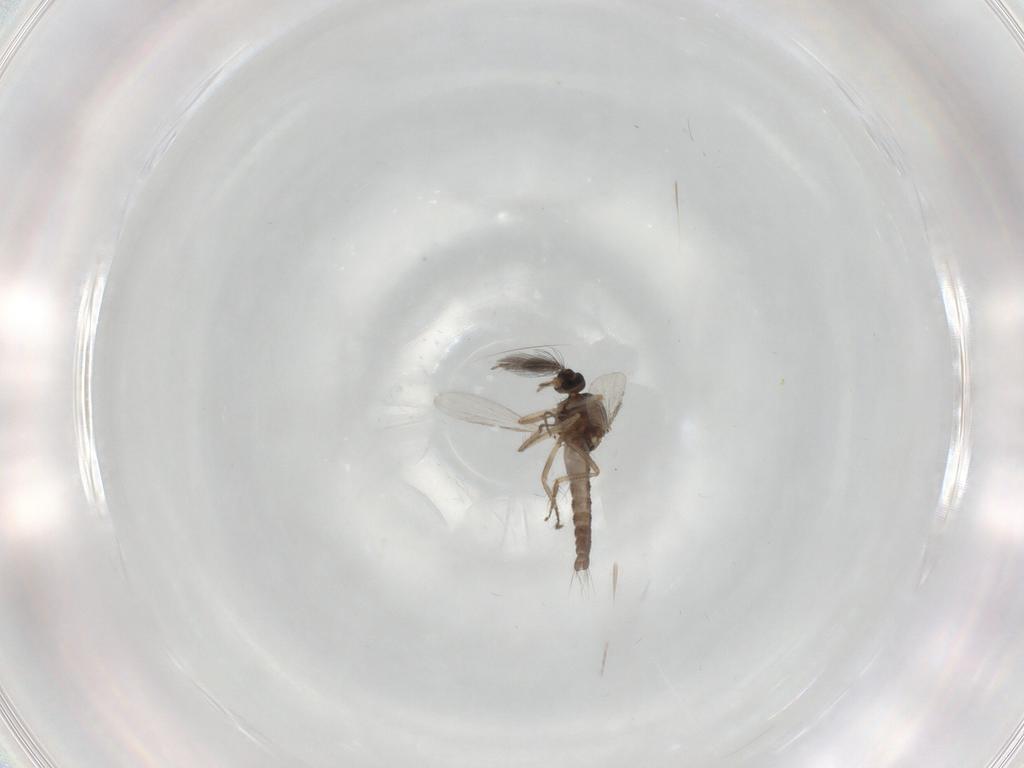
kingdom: Animalia
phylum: Arthropoda
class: Insecta
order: Diptera
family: Ceratopogonidae
